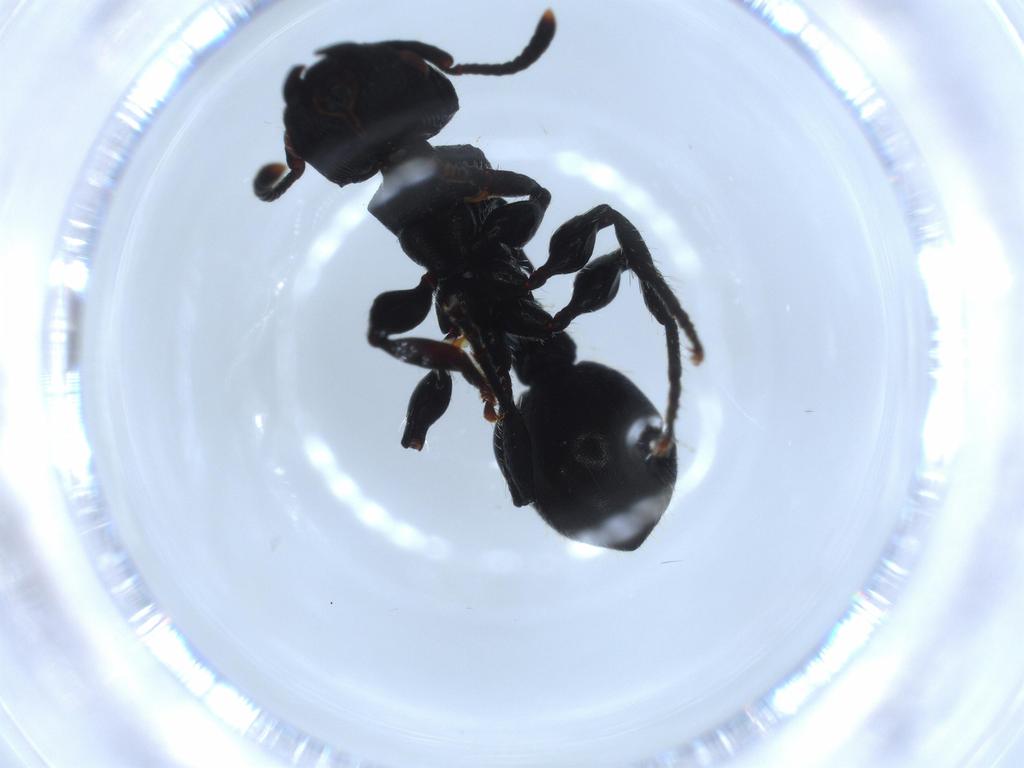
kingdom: Animalia
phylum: Arthropoda
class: Insecta
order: Hymenoptera
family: Formicidae
